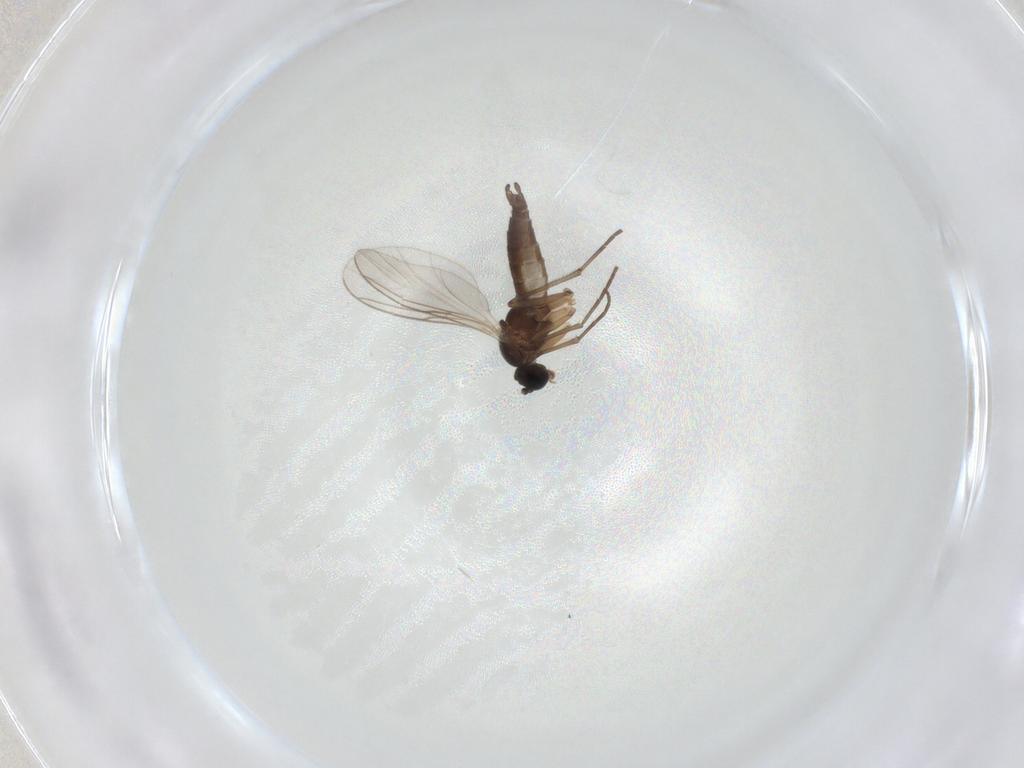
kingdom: Animalia
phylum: Arthropoda
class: Insecta
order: Diptera
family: Sciaridae
